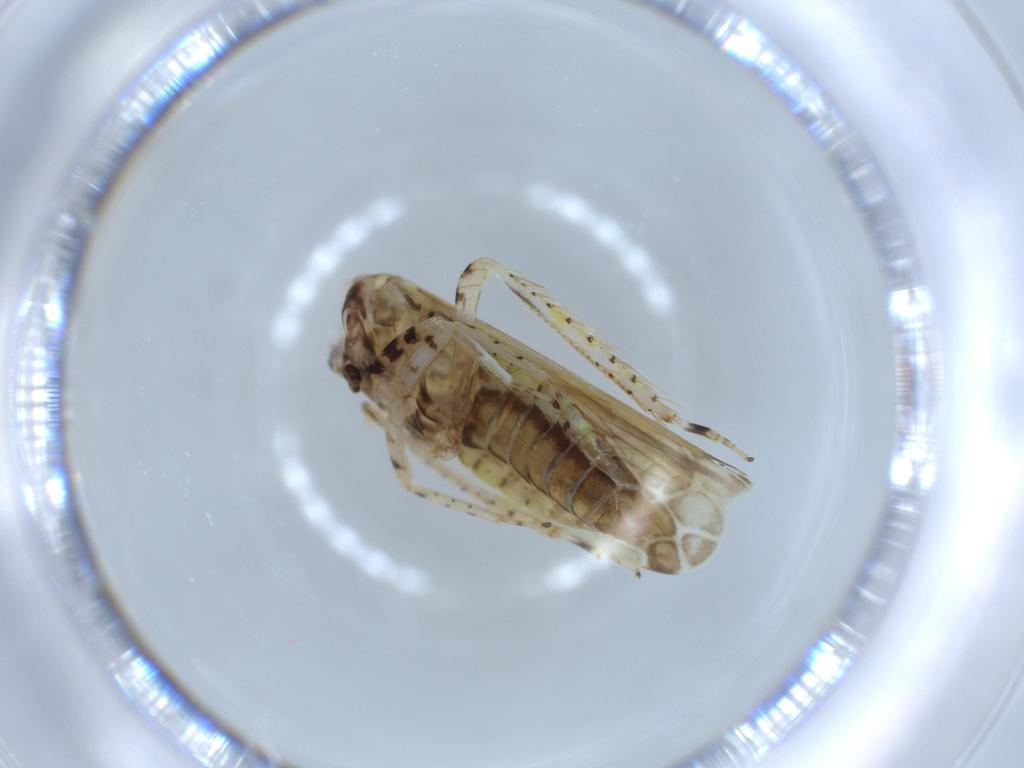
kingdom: Animalia
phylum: Arthropoda
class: Insecta
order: Hemiptera
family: Cicadellidae
